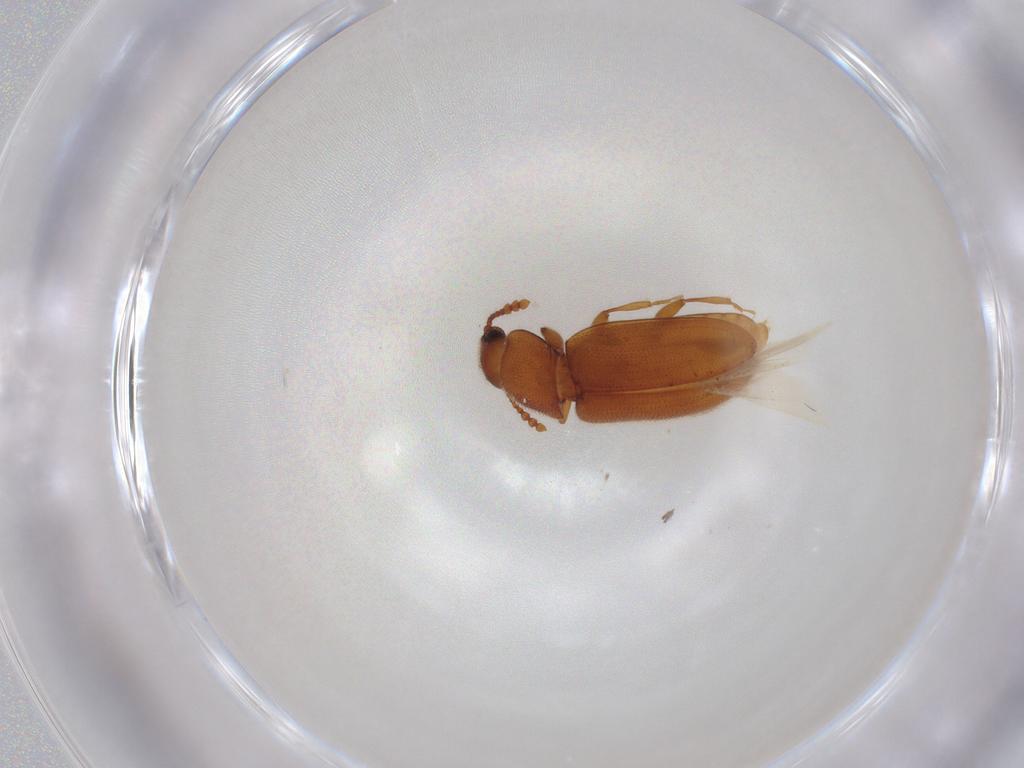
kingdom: Animalia
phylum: Arthropoda
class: Insecta
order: Coleoptera
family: Erotylidae
